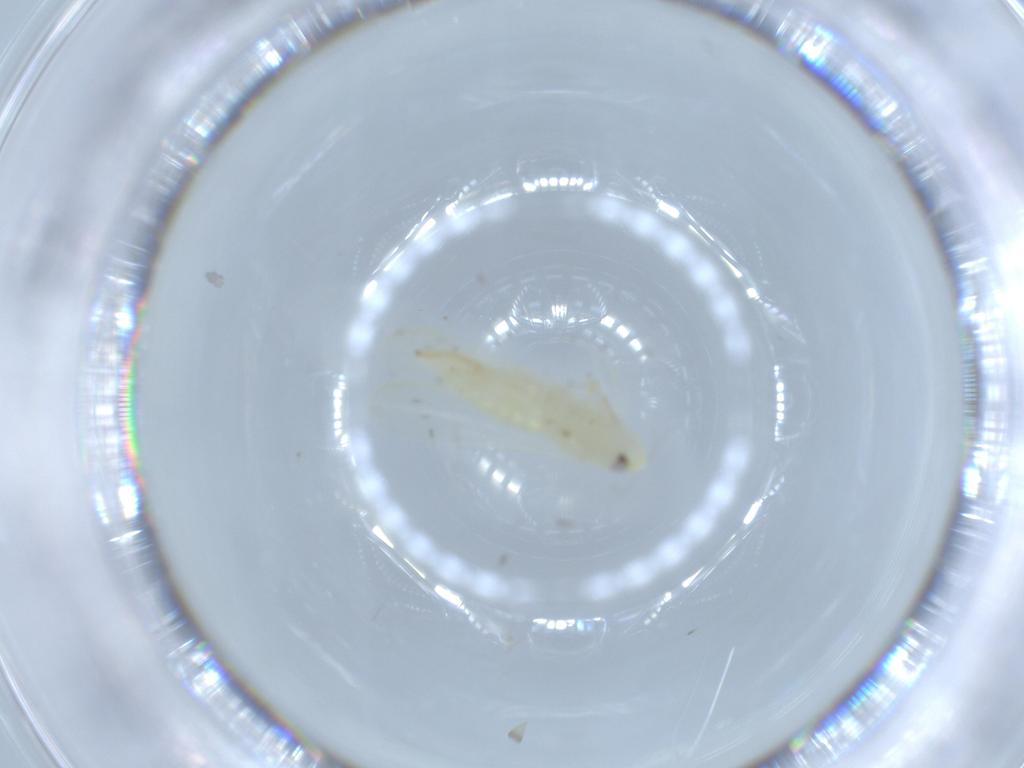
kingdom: Animalia
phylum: Arthropoda
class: Insecta
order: Hemiptera
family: Cicadellidae
